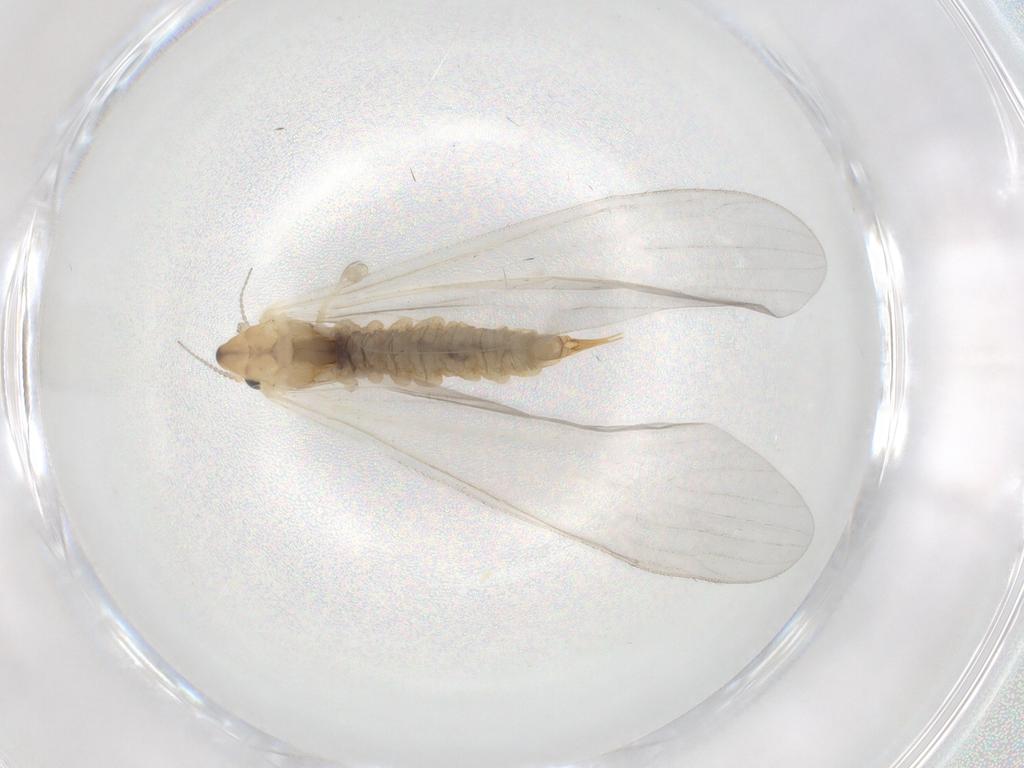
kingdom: Animalia
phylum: Arthropoda
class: Insecta
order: Diptera
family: Limoniidae
